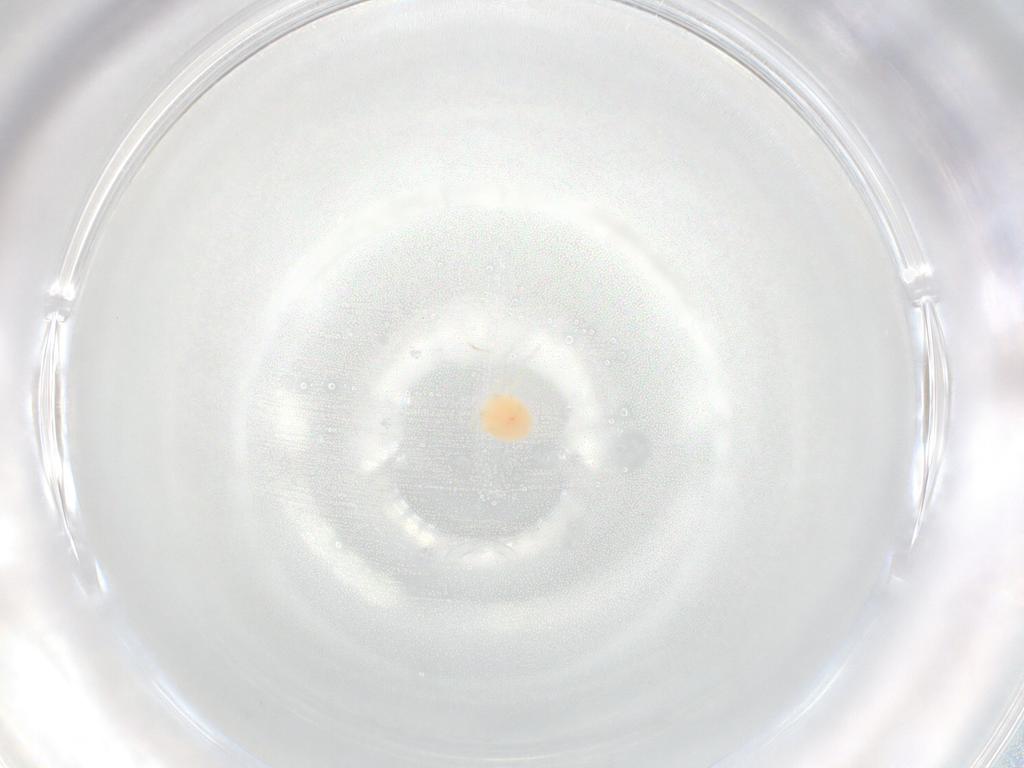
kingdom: Animalia
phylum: Arthropoda
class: Arachnida
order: Trombidiformes
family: Hydryphantidae
